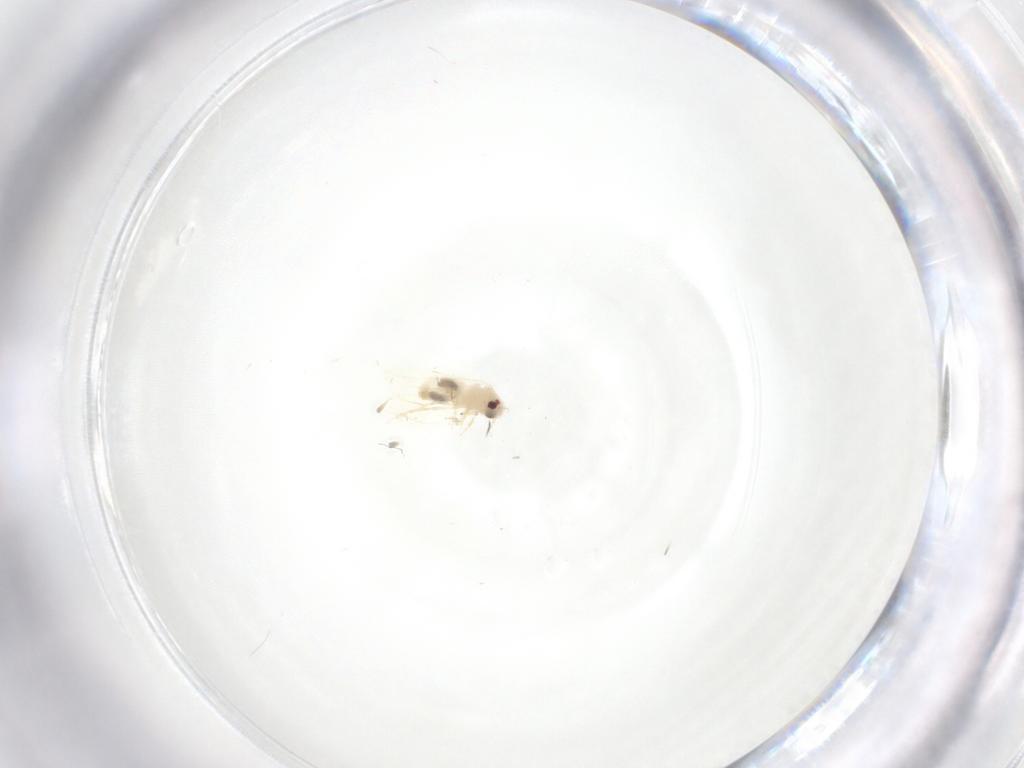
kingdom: Animalia
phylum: Arthropoda
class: Insecta
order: Hemiptera
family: Aleyrodidae
